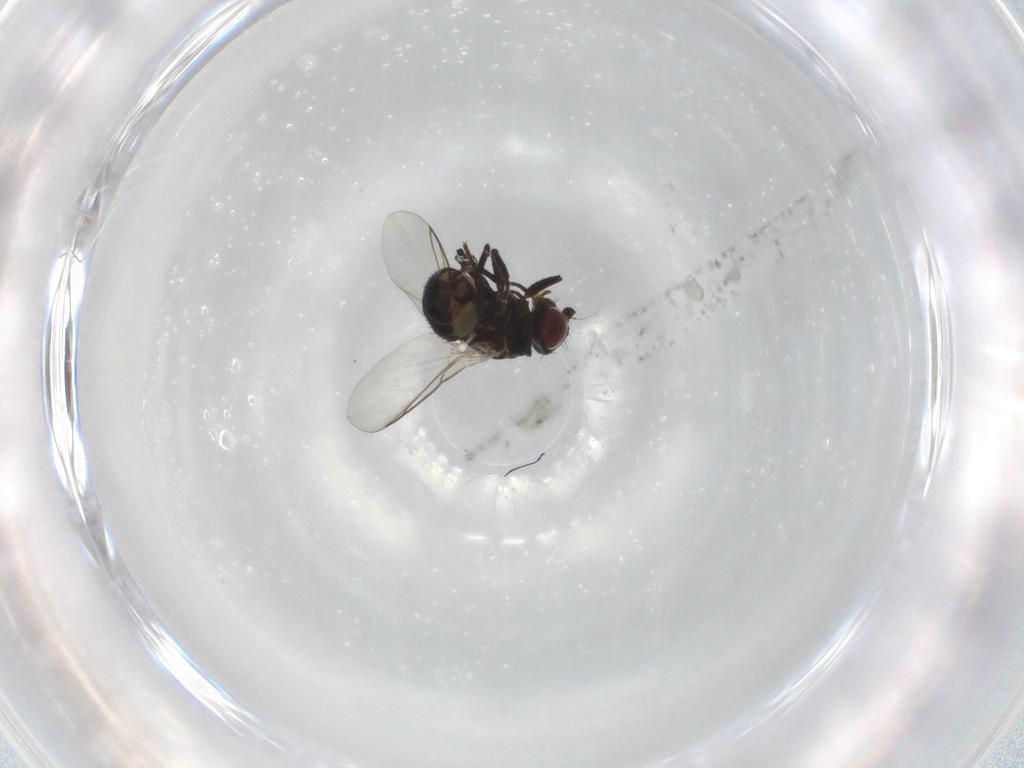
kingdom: Animalia
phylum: Arthropoda
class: Insecta
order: Diptera
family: Agromyzidae
